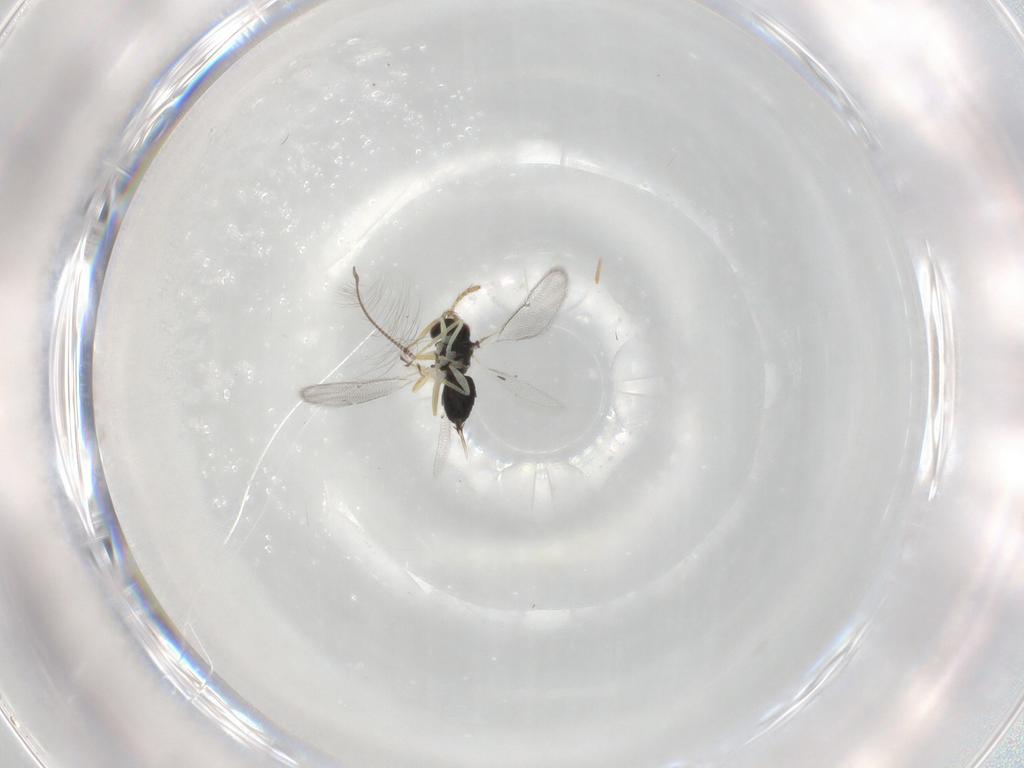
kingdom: Animalia
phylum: Arthropoda
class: Insecta
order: Hymenoptera
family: Eulophidae
